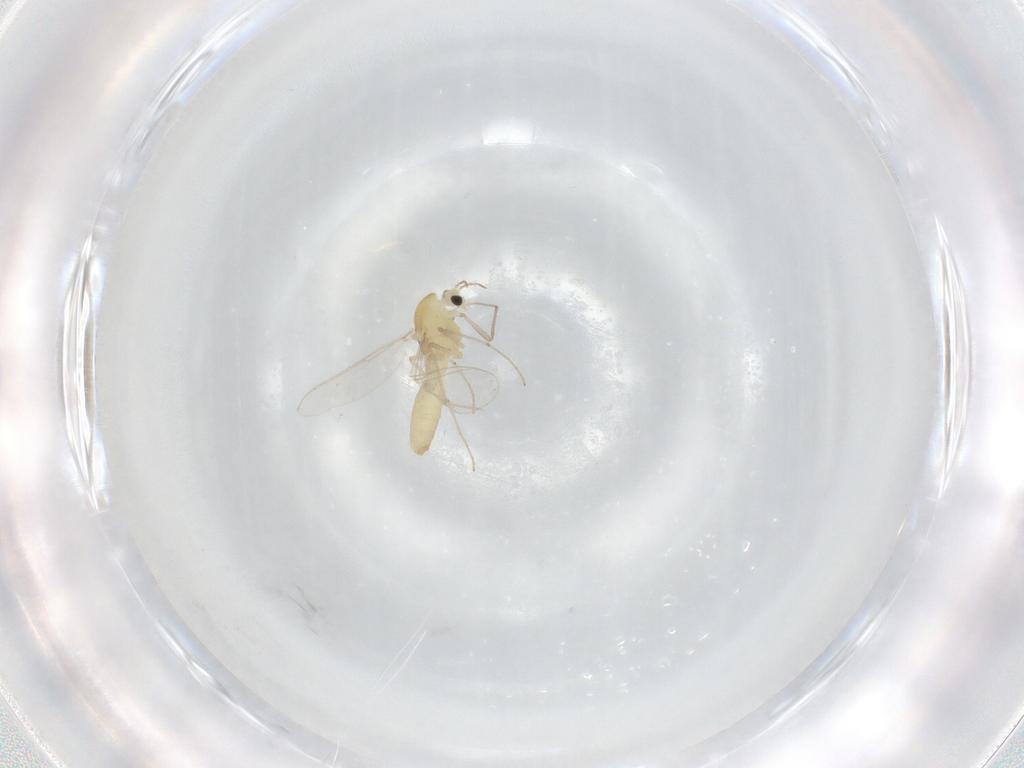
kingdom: Animalia
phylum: Arthropoda
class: Insecta
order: Diptera
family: Chironomidae
